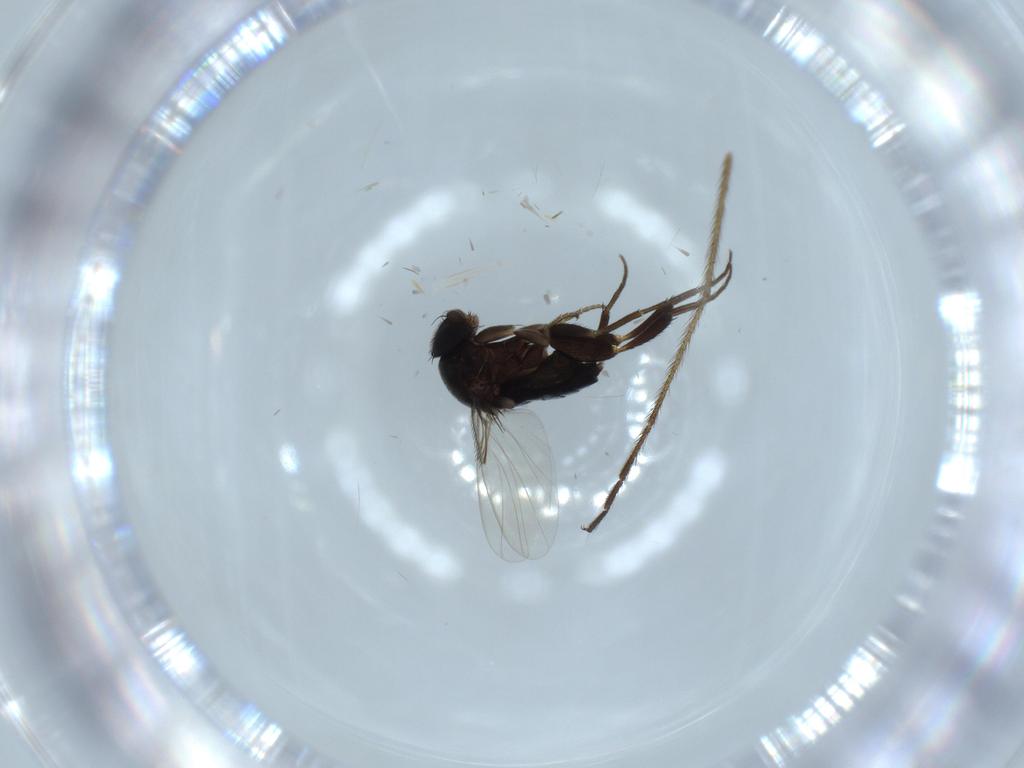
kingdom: Animalia
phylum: Arthropoda
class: Insecta
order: Diptera
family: Phoridae
